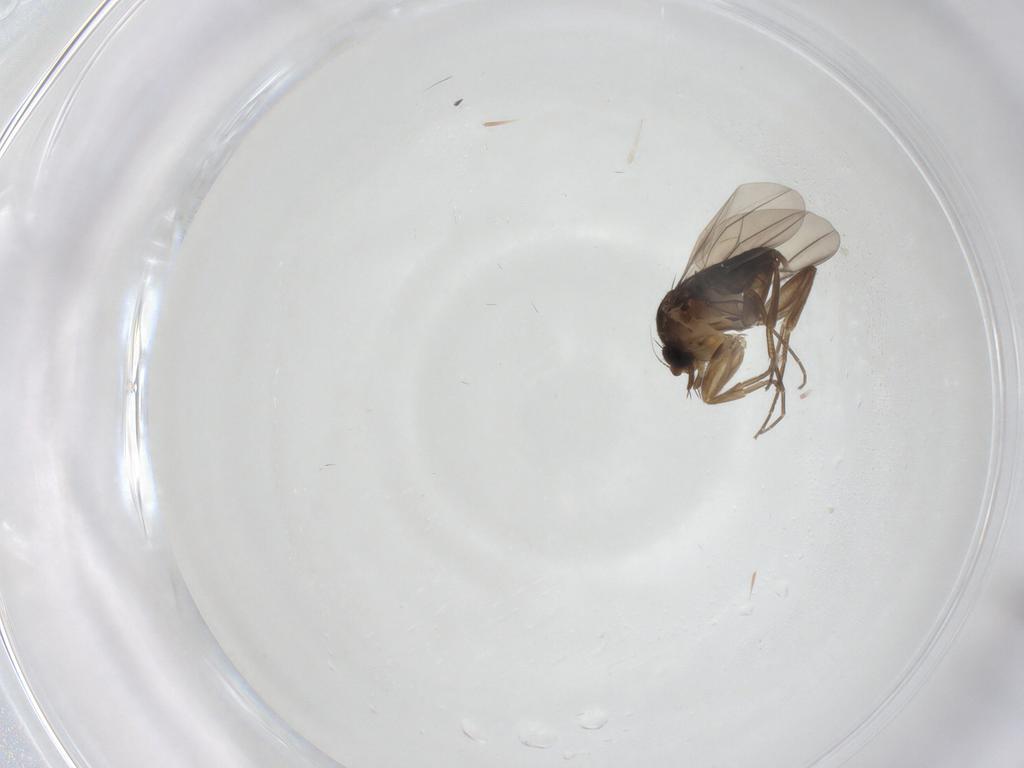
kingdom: Animalia
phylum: Arthropoda
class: Insecta
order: Diptera
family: Phoridae
